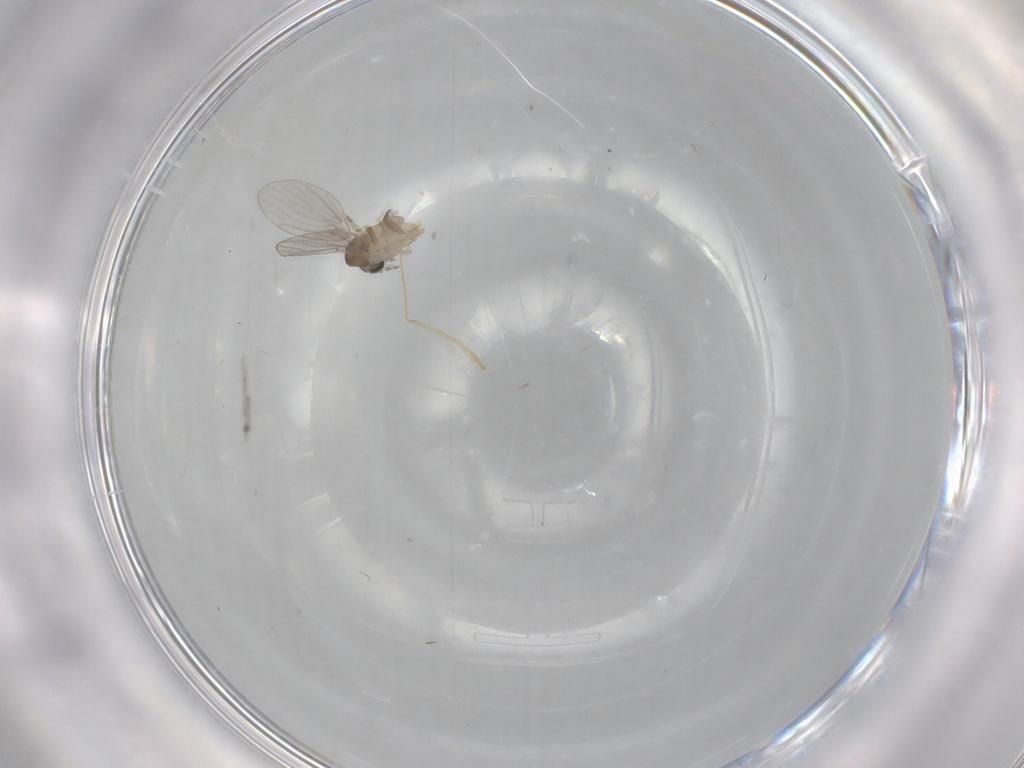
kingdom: Animalia
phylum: Arthropoda
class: Insecta
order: Diptera
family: Psychodidae
